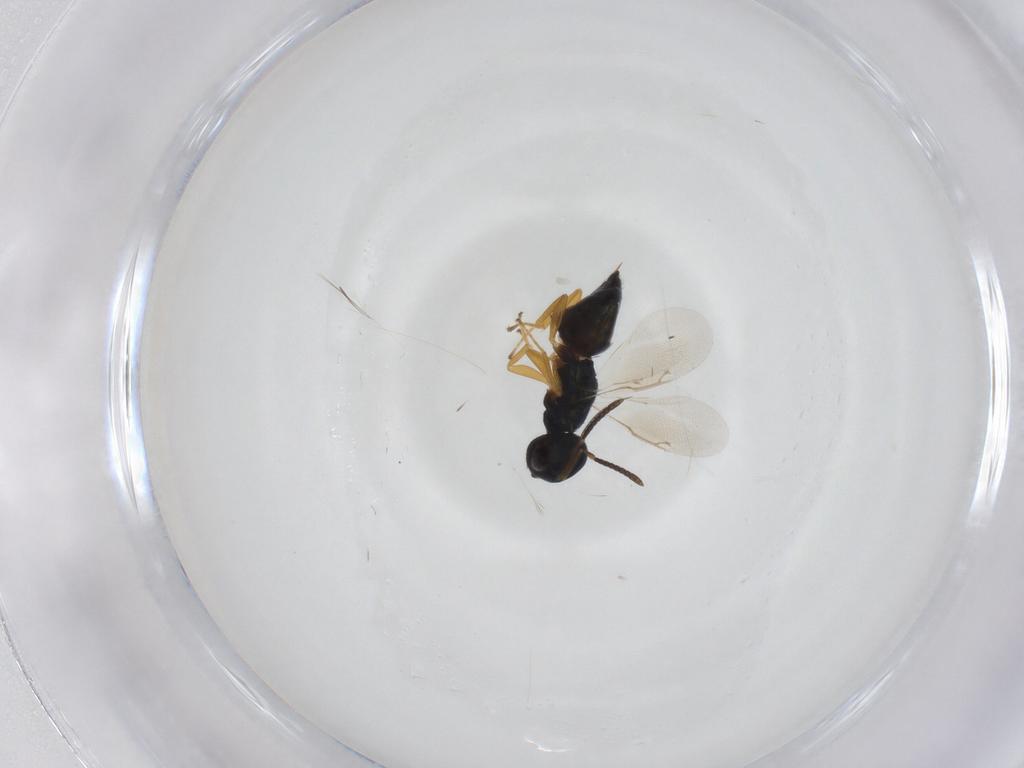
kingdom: Animalia
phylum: Arthropoda
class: Insecta
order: Hymenoptera
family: Pteromalidae
